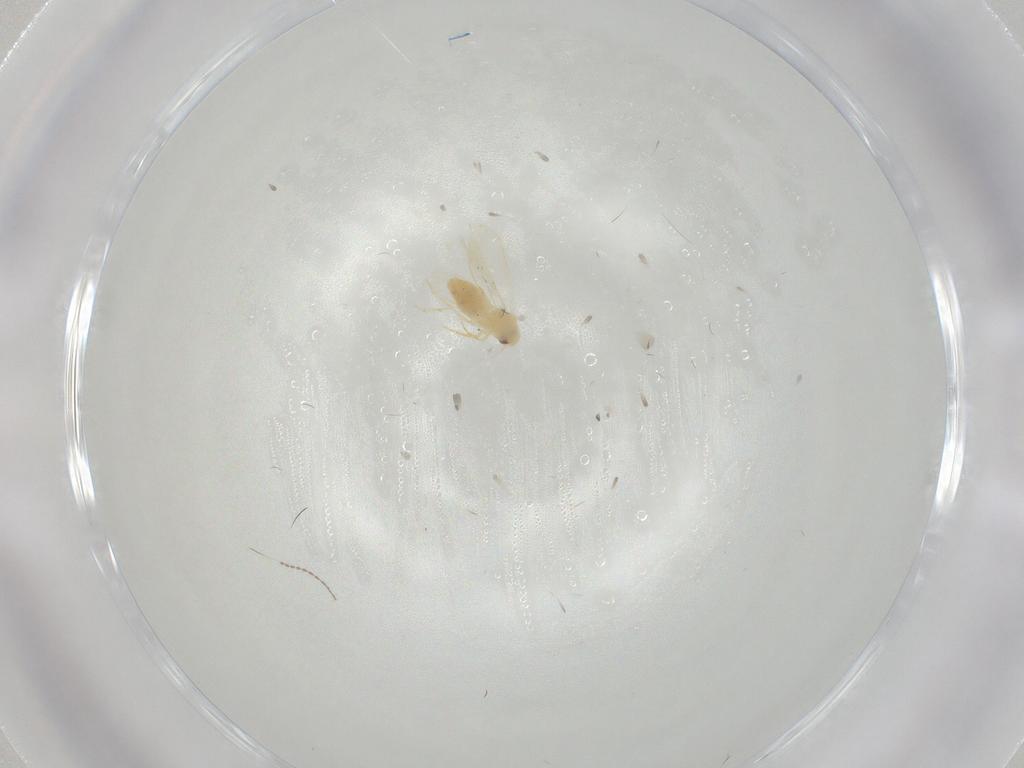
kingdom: Animalia
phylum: Arthropoda
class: Insecta
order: Hemiptera
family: Aleyrodidae
